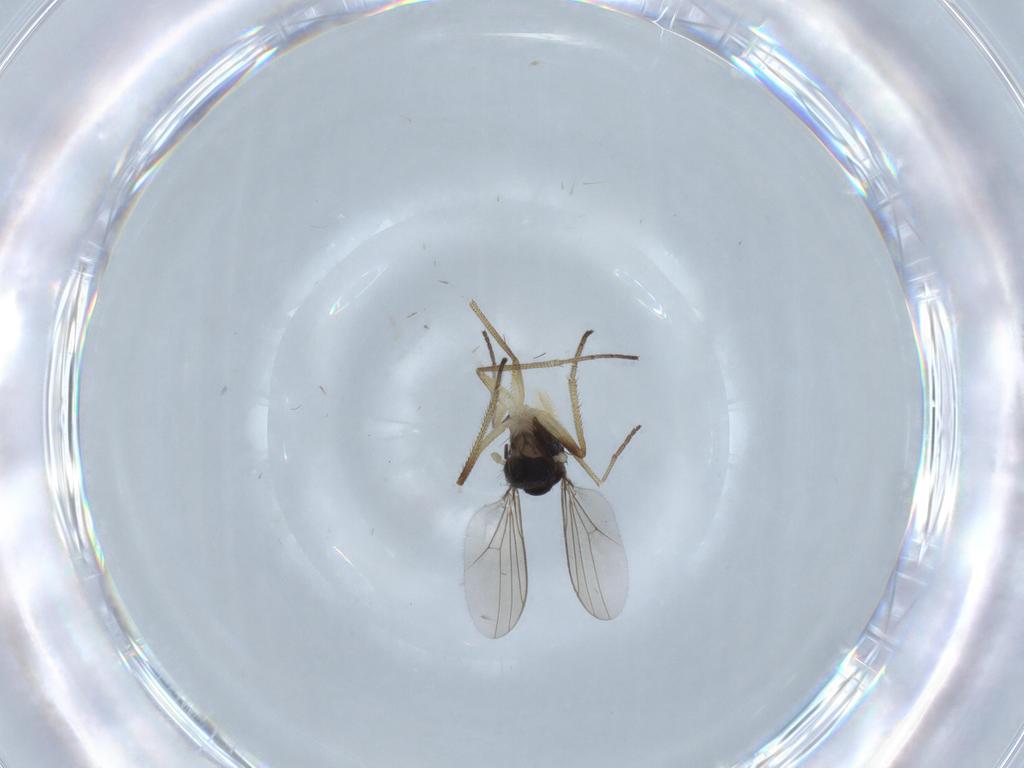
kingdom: Animalia
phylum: Arthropoda
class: Insecta
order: Diptera
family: Dolichopodidae
